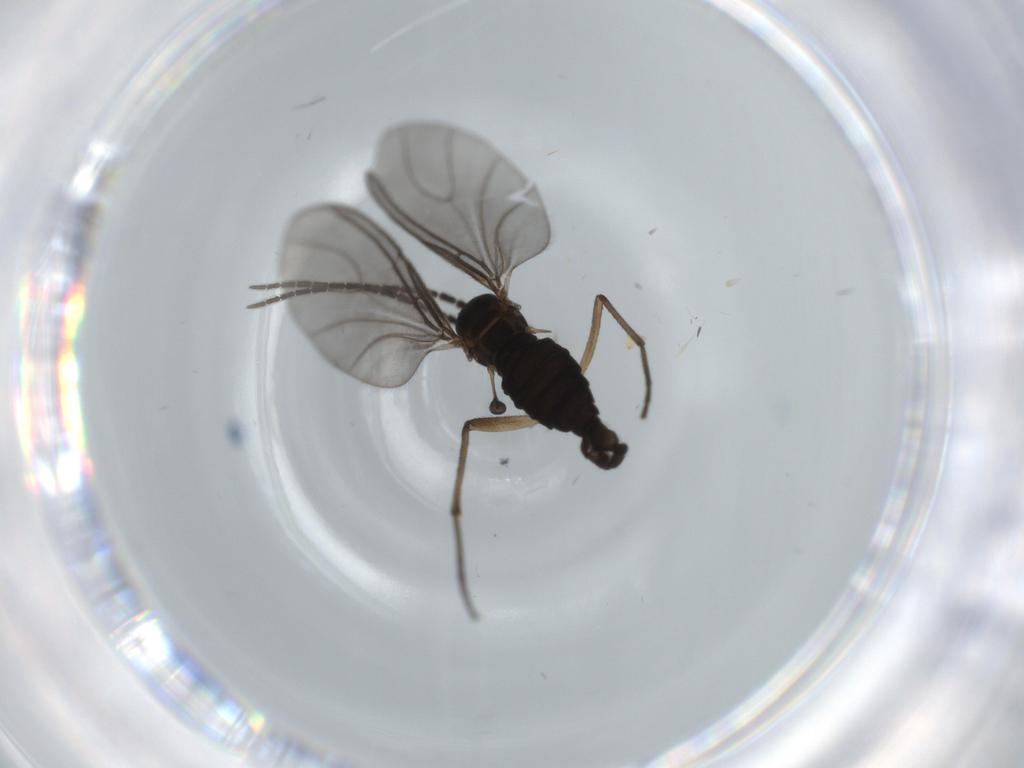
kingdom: Animalia
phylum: Arthropoda
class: Insecta
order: Diptera
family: Sciaridae
